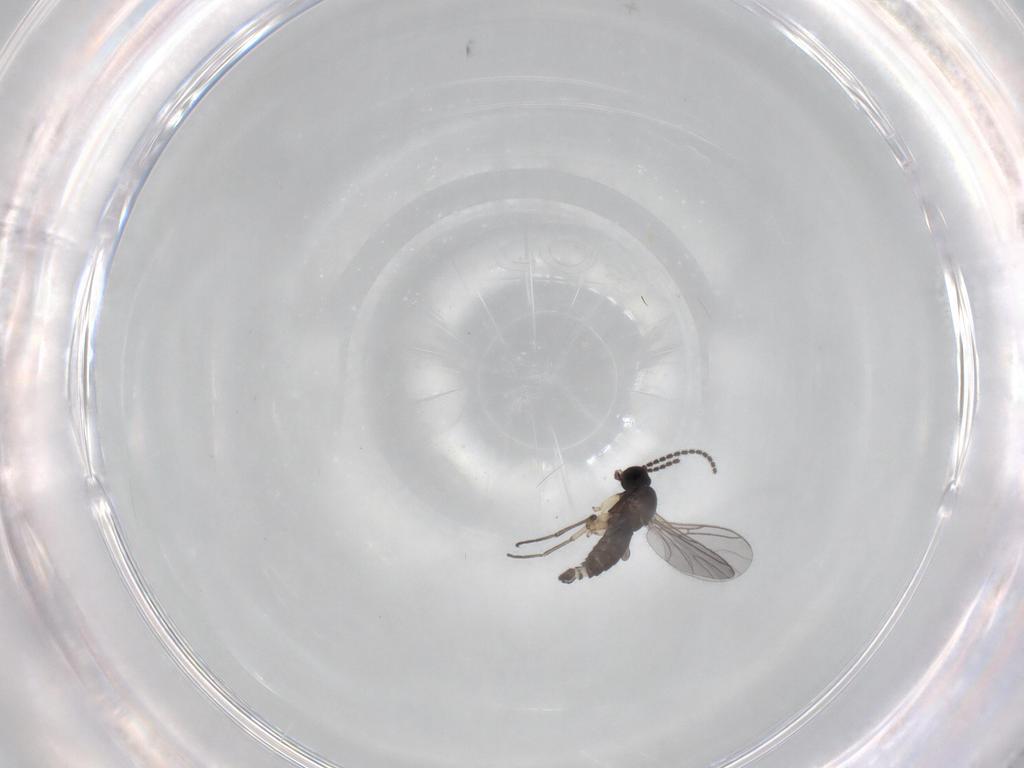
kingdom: Animalia
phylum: Arthropoda
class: Insecta
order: Diptera
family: Sciaridae
